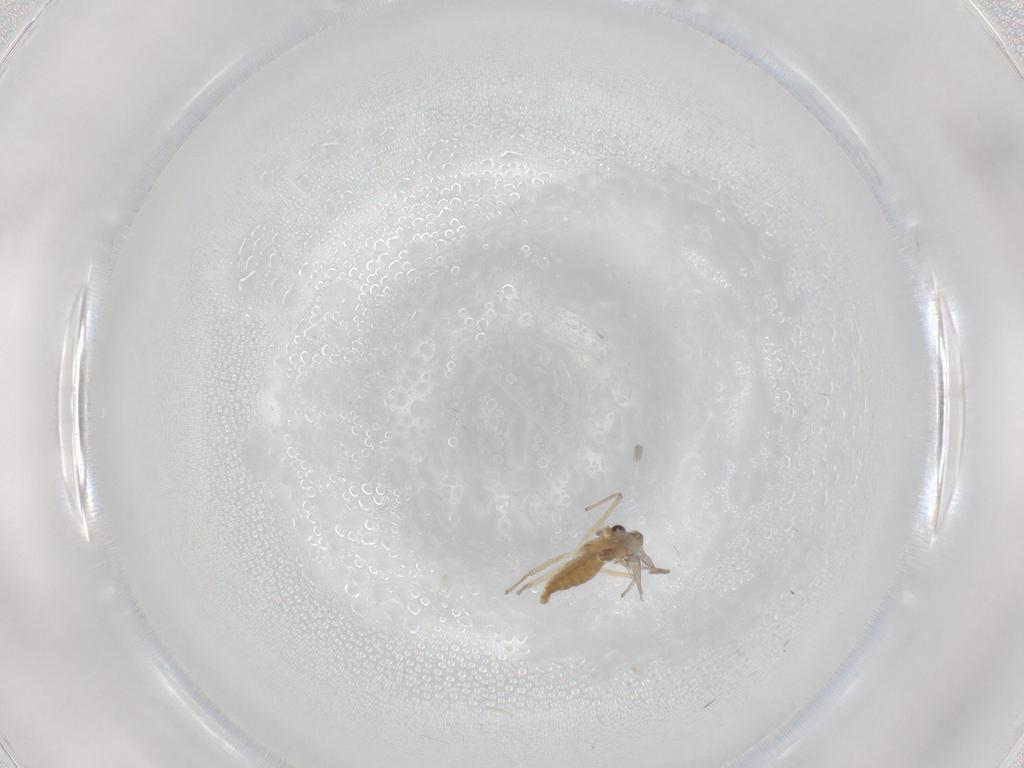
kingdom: Animalia
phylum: Arthropoda
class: Insecta
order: Diptera
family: Chironomidae
